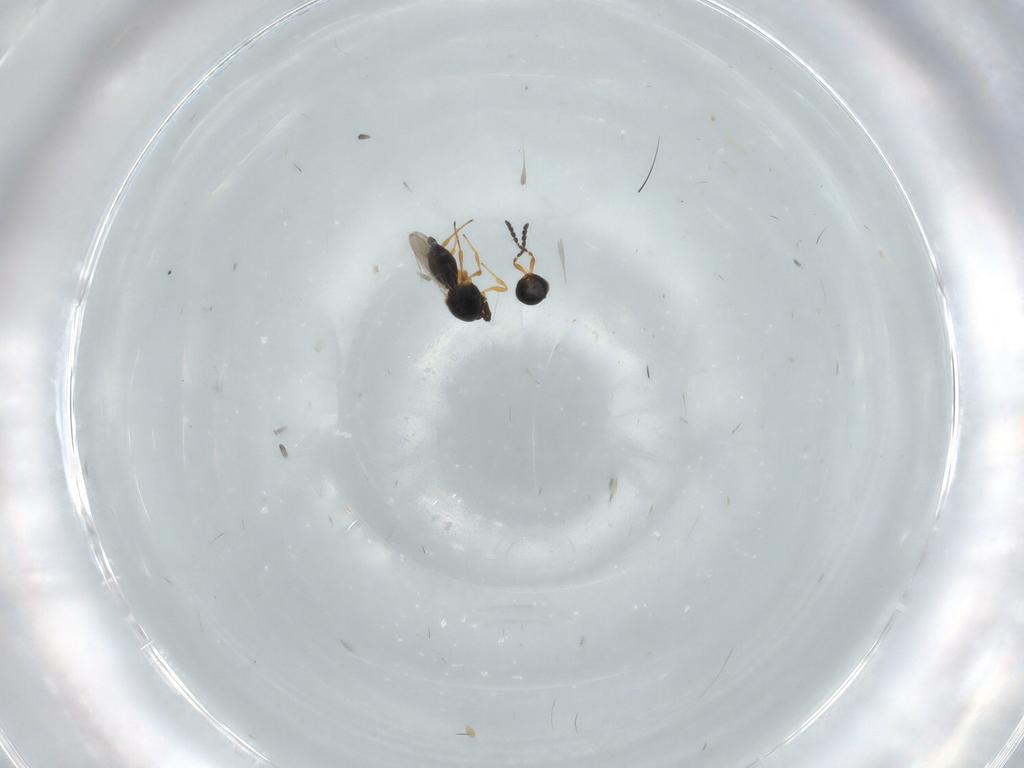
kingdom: Animalia
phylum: Arthropoda
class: Insecta
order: Hymenoptera
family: Platygastridae
